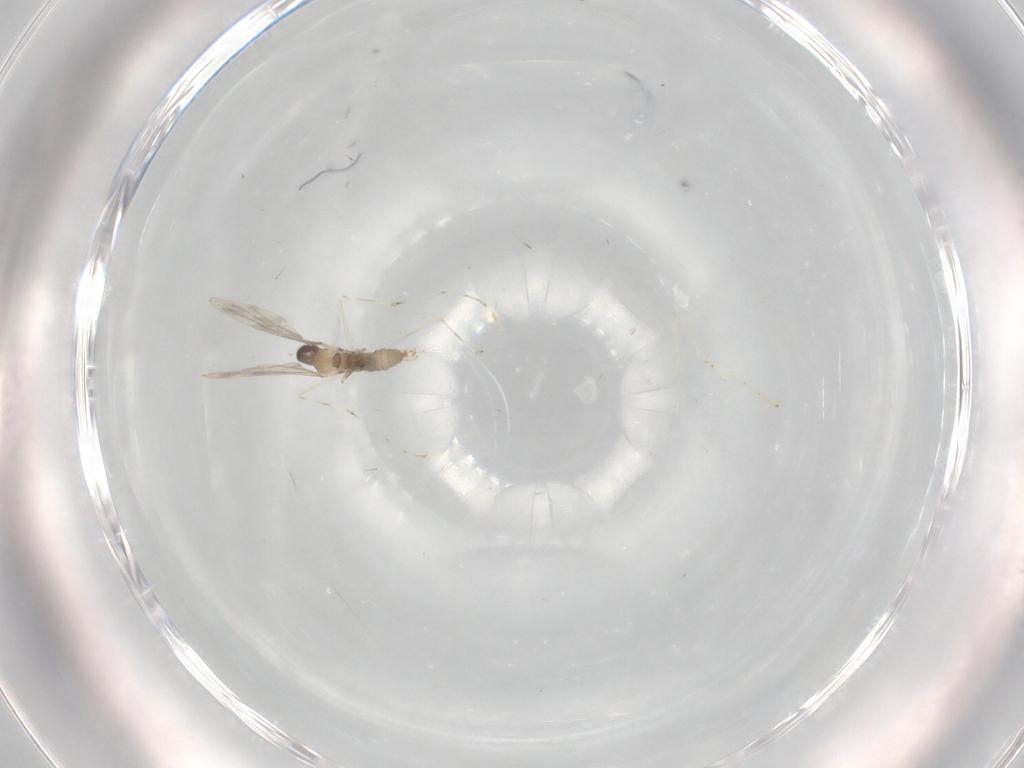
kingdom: Animalia
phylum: Arthropoda
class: Insecta
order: Diptera
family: Cecidomyiidae
